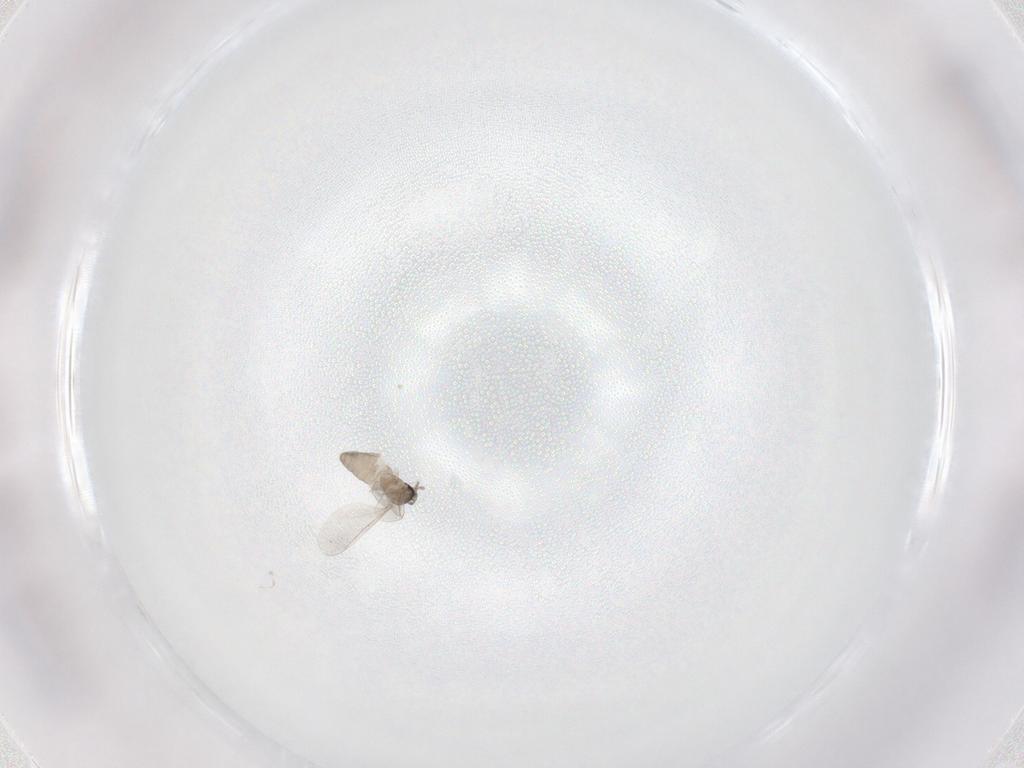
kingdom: Animalia
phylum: Arthropoda
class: Insecta
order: Diptera
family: Cecidomyiidae
